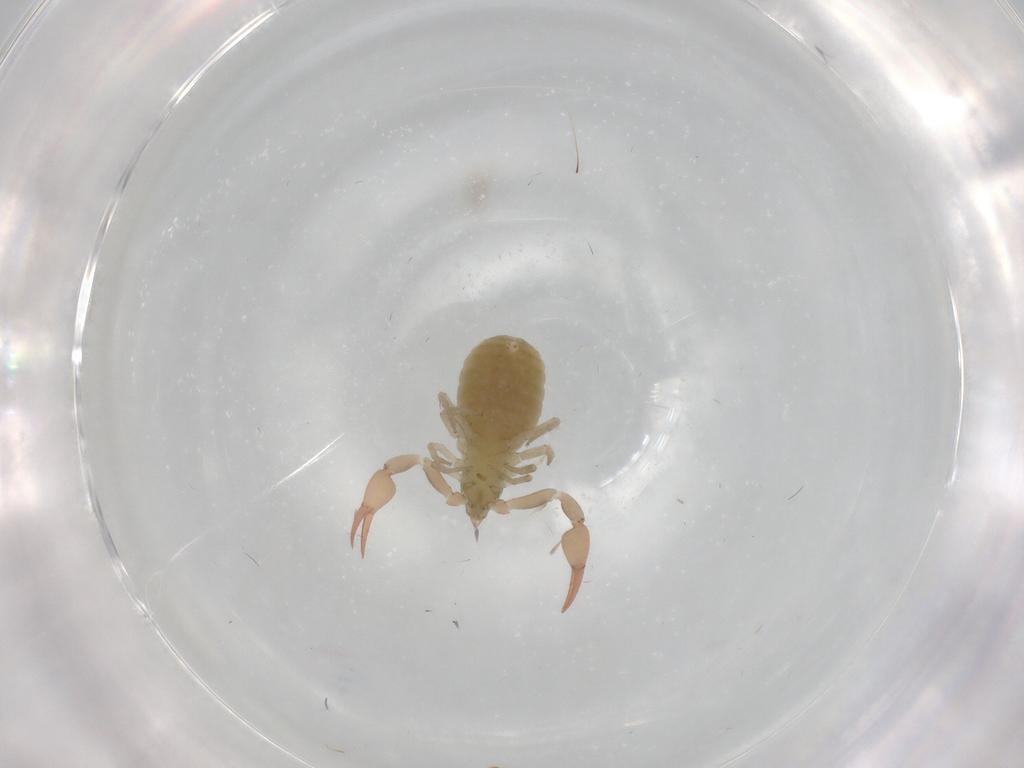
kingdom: Animalia
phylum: Arthropoda
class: Arachnida
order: Pseudoscorpiones
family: Olpiidae
